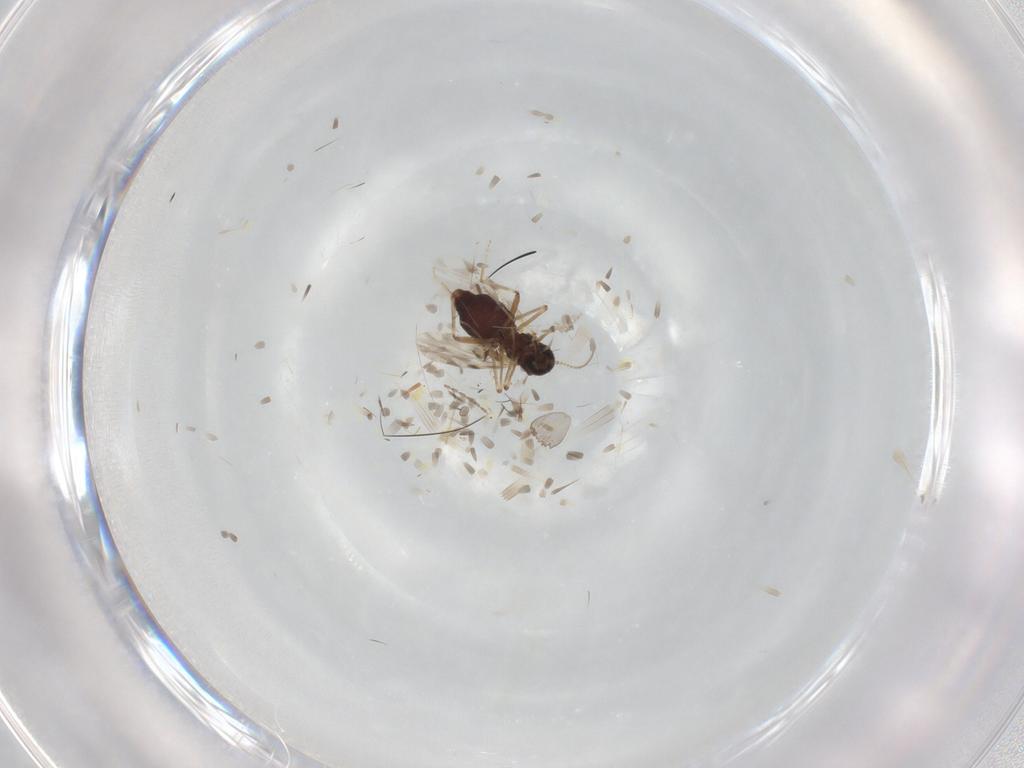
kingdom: Animalia
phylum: Arthropoda
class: Insecta
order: Diptera
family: Ceratopogonidae
